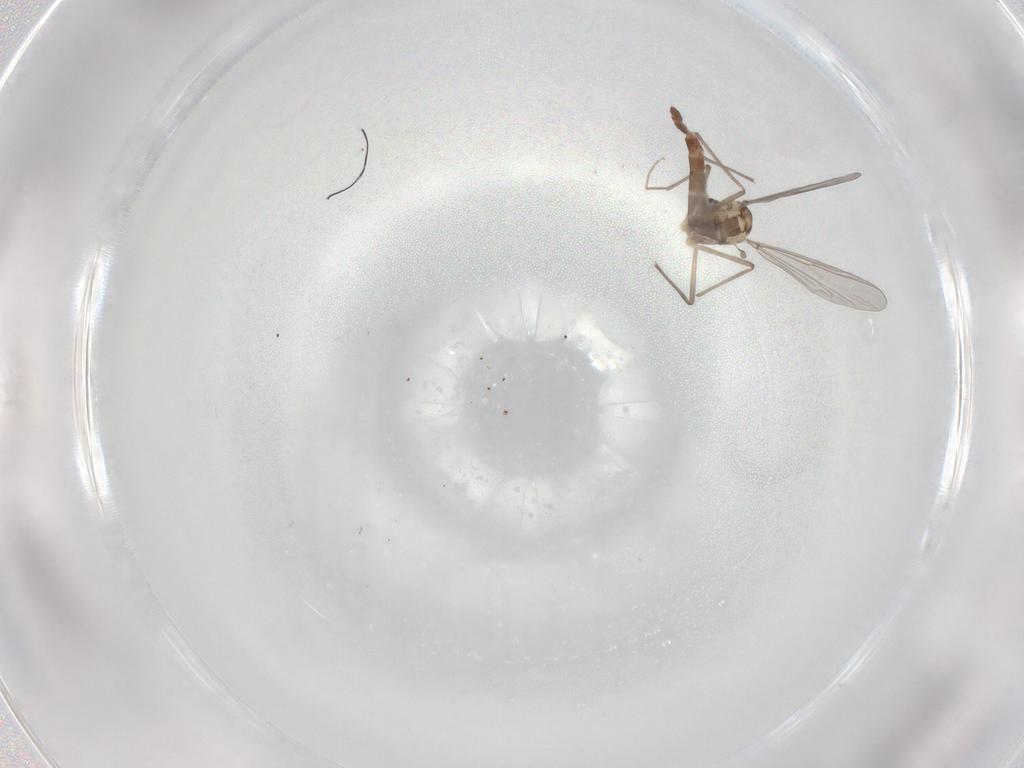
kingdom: Animalia
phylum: Arthropoda
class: Insecta
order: Diptera
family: Chironomidae
